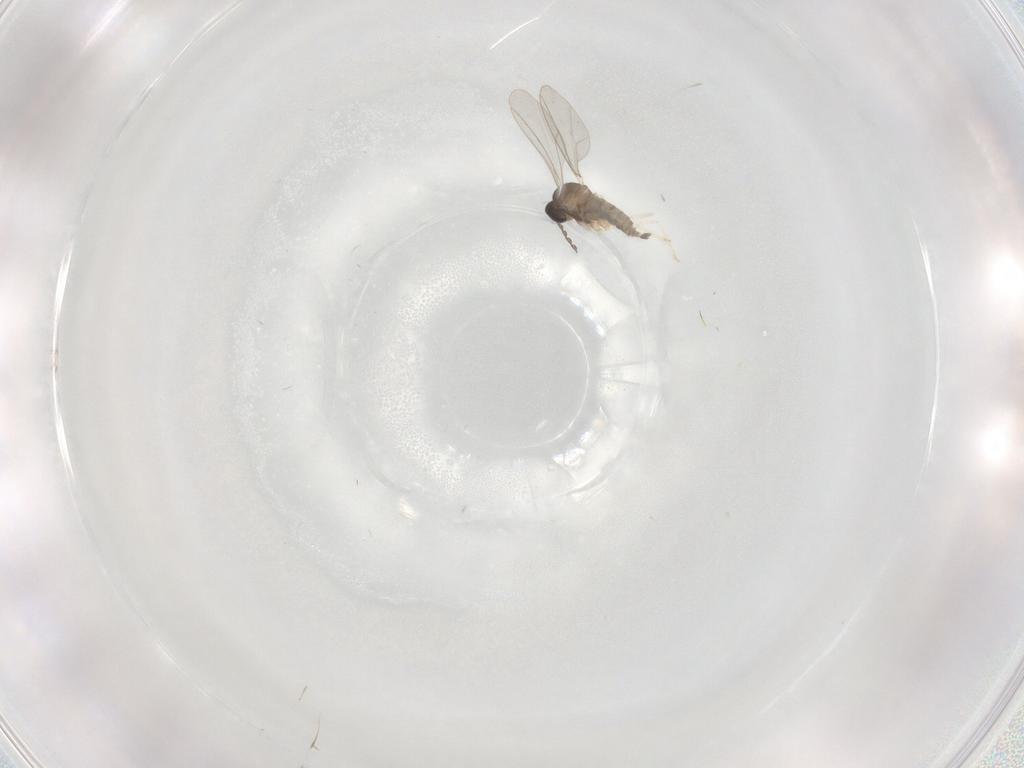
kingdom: Animalia
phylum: Arthropoda
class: Insecta
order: Diptera
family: Cecidomyiidae
